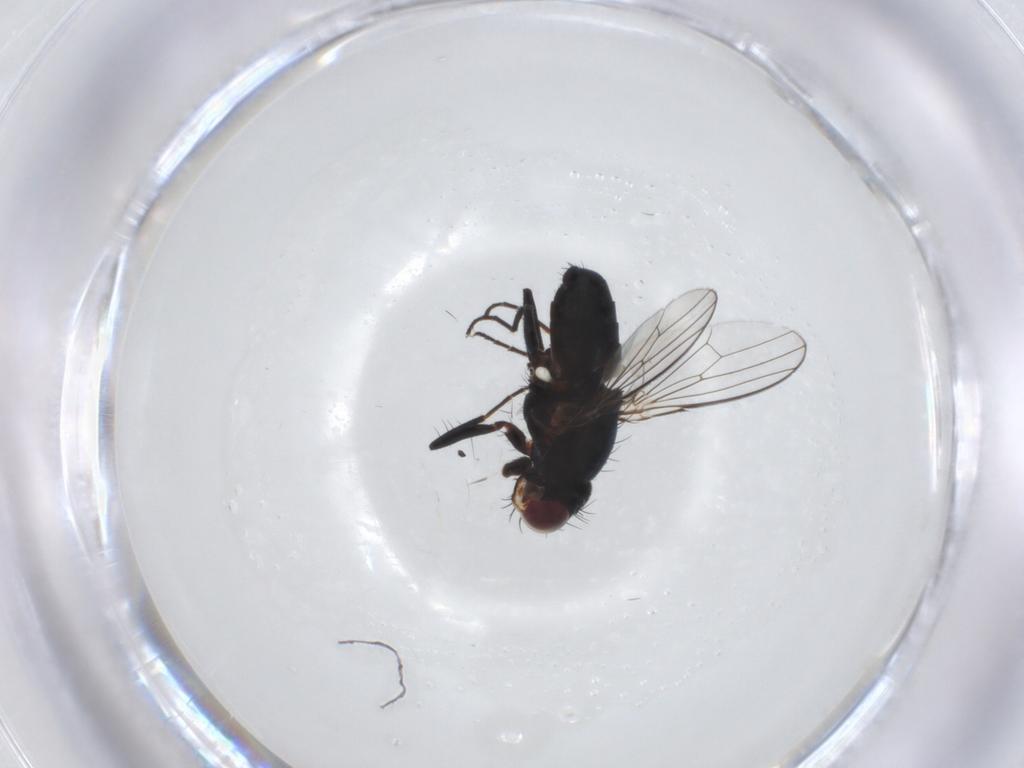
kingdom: Animalia
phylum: Arthropoda
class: Insecta
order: Diptera
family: Carnidae
